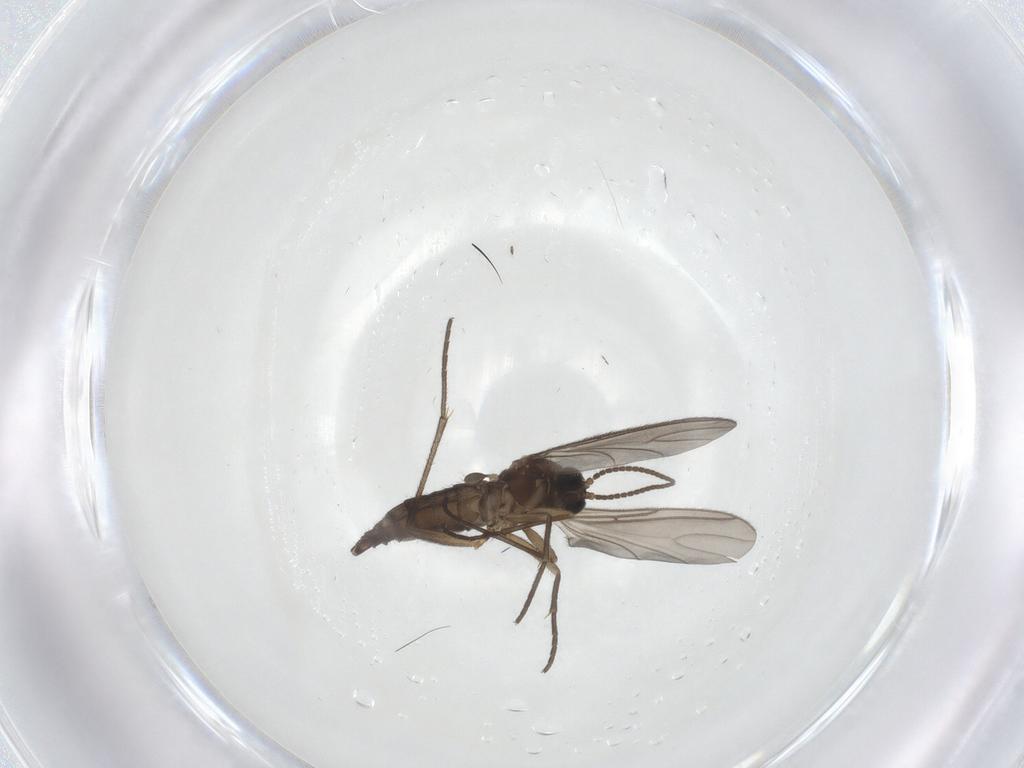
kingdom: Animalia
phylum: Arthropoda
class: Insecta
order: Diptera
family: Sciaridae
